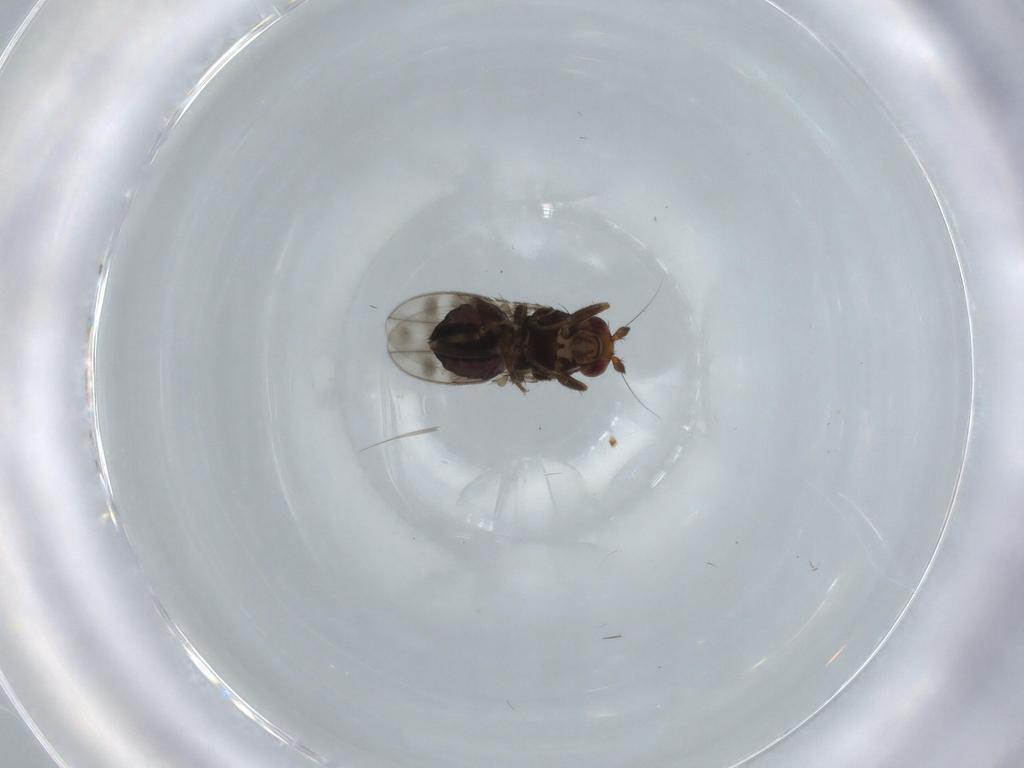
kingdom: Animalia
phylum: Arthropoda
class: Insecta
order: Diptera
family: Sphaeroceridae
